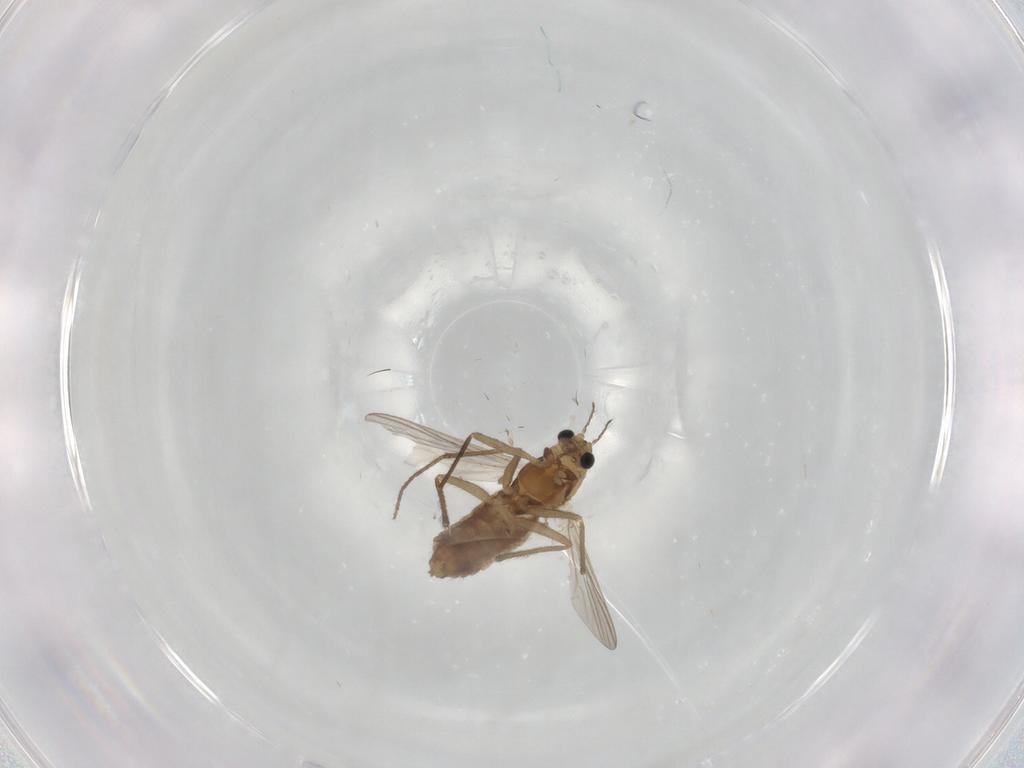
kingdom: Animalia
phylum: Arthropoda
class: Insecta
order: Diptera
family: Chironomidae
